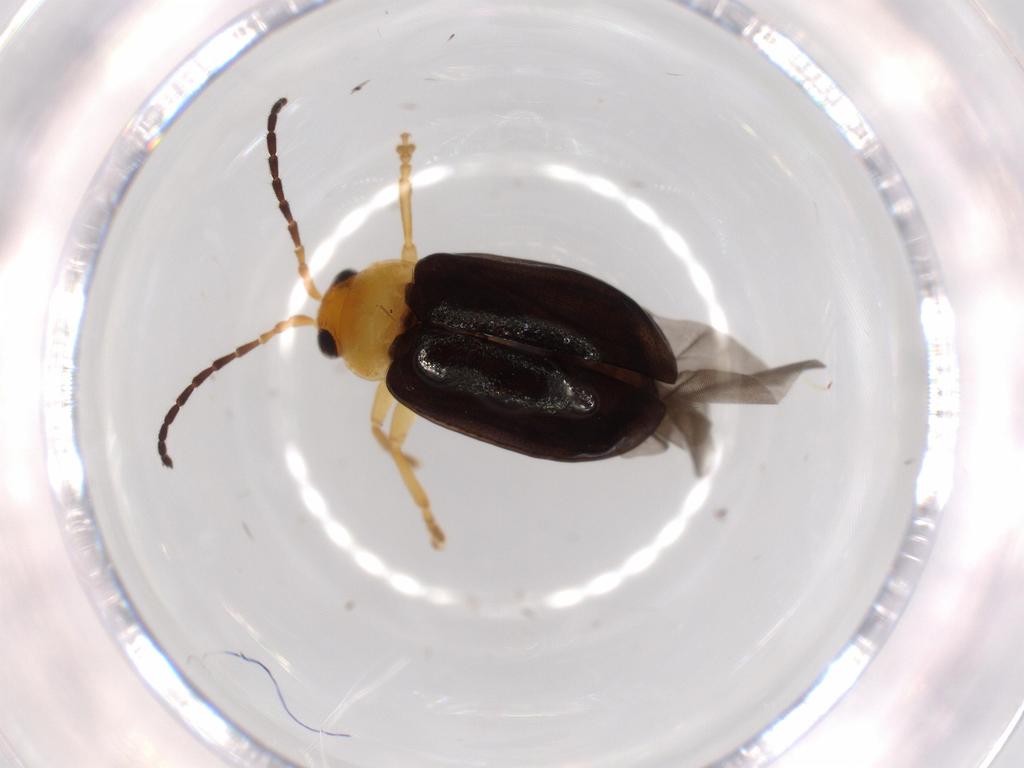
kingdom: Animalia
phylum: Arthropoda
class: Insecta
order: Coleoptera
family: Chrysomelidae
